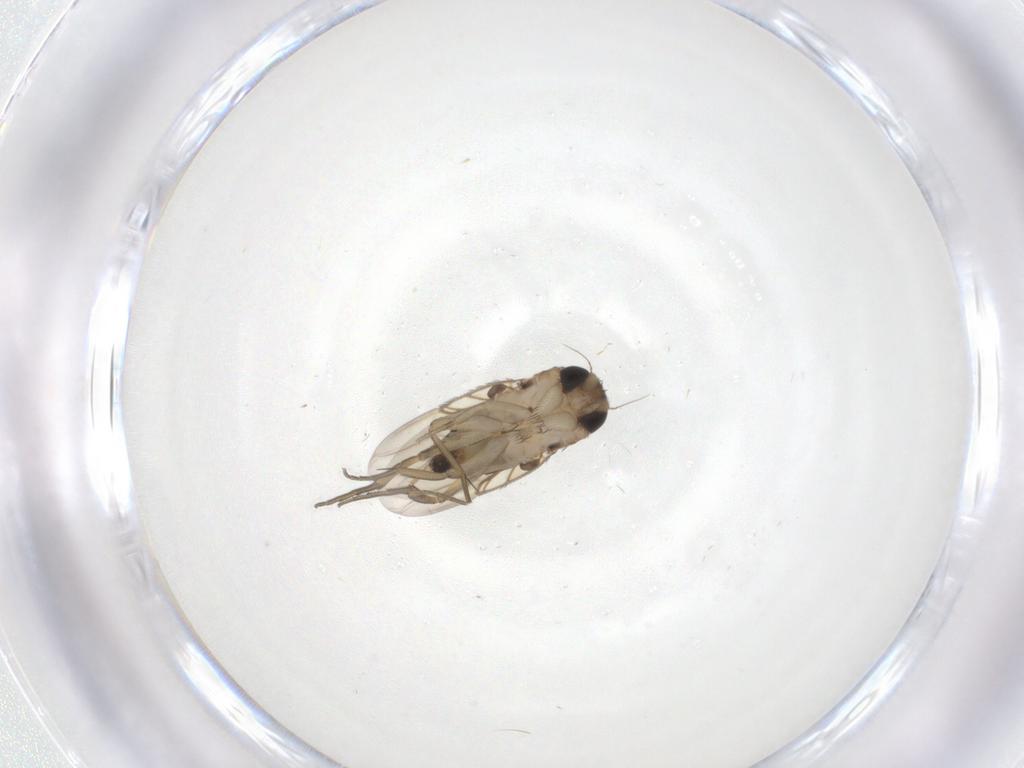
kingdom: Animalia
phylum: Arthropoda
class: Insecta
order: Diptera
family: Phoridae
